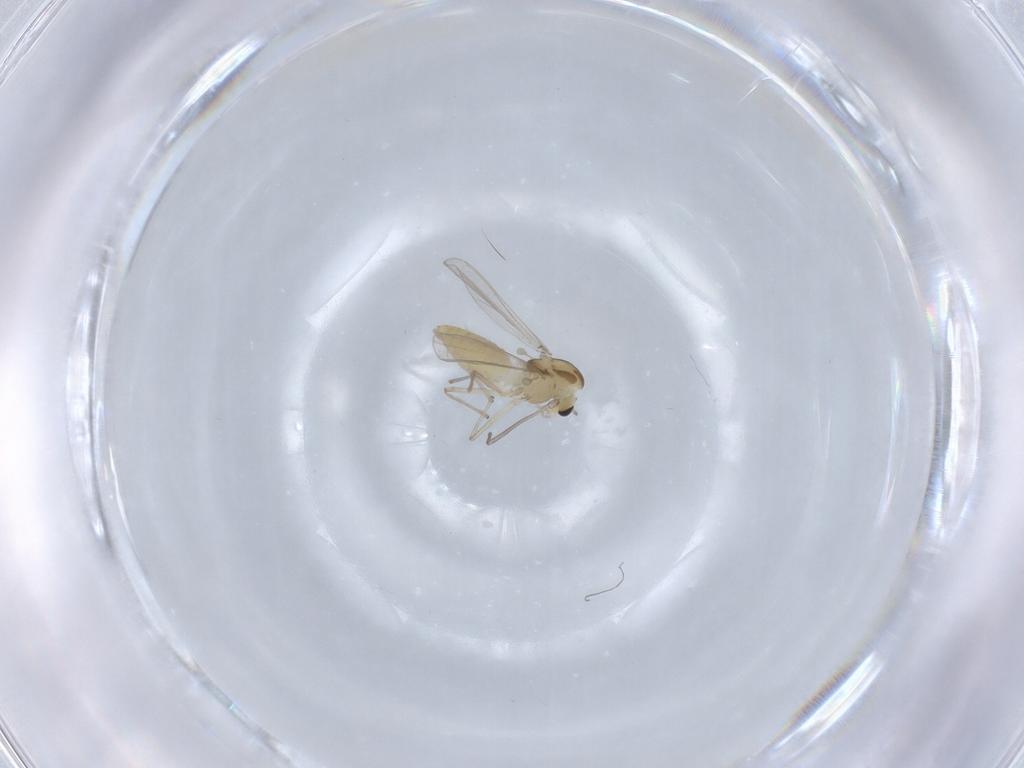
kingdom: Animalia
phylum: Arthropoda
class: Insecta
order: Diptera
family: Chironomidae
